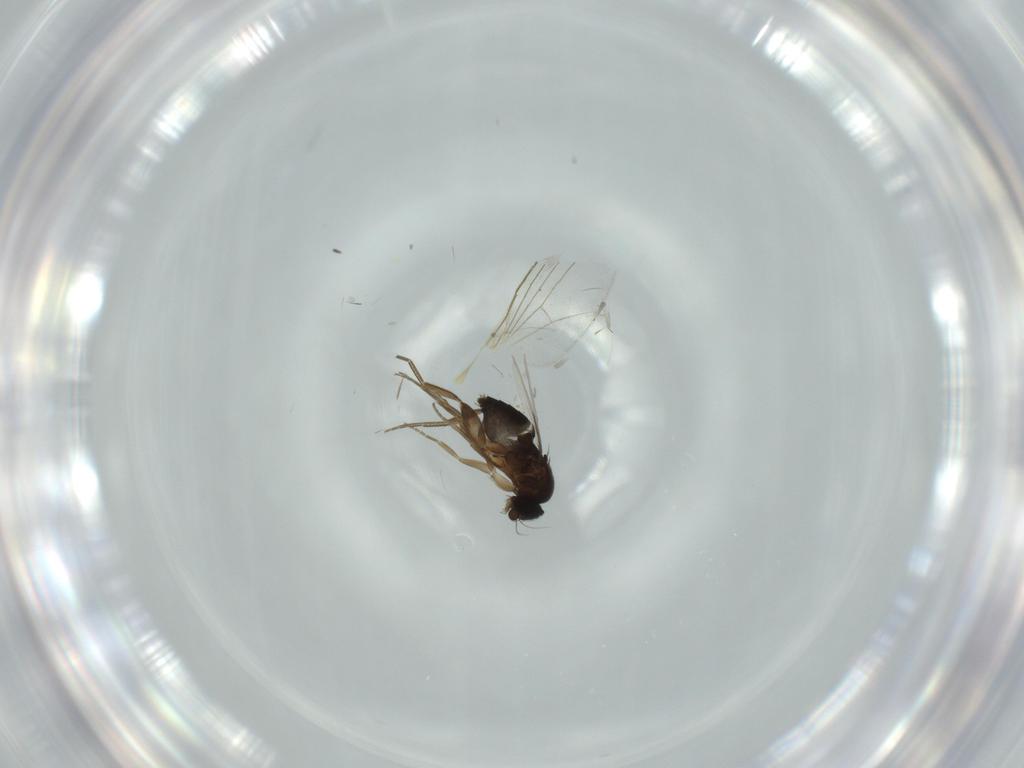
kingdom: Animalia
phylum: Arthropoda
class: Insecta
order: Diptera
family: Phoridae
